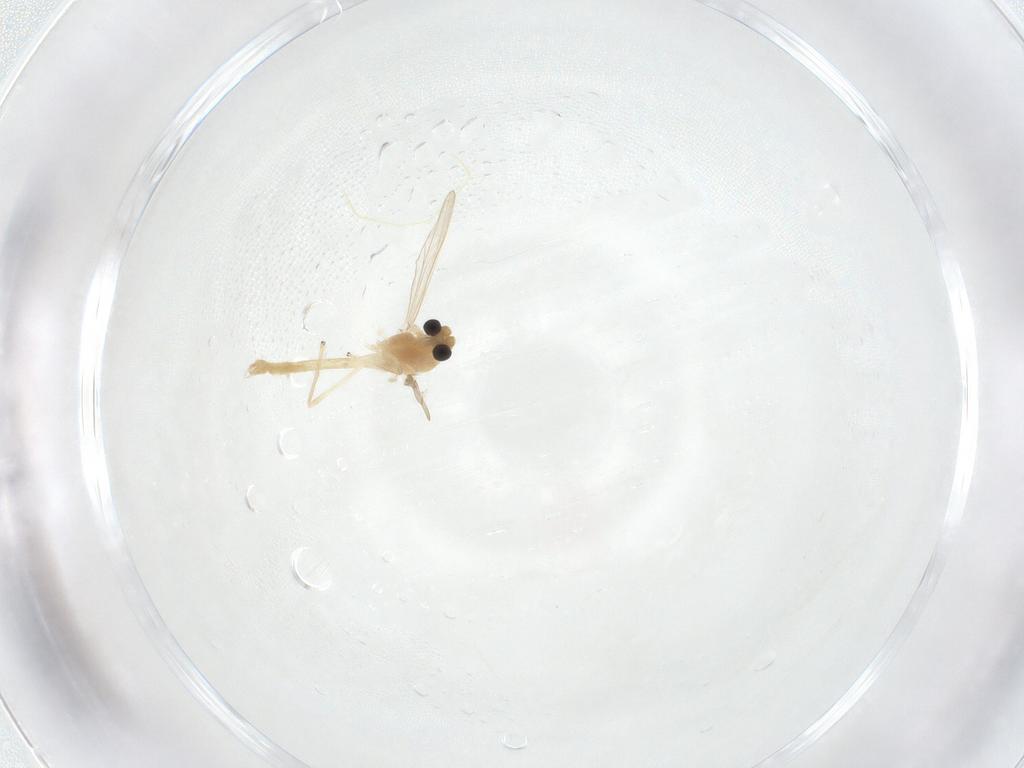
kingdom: Animalia
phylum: Arthropoda
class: Insecta
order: Diptera
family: Chironomidae
